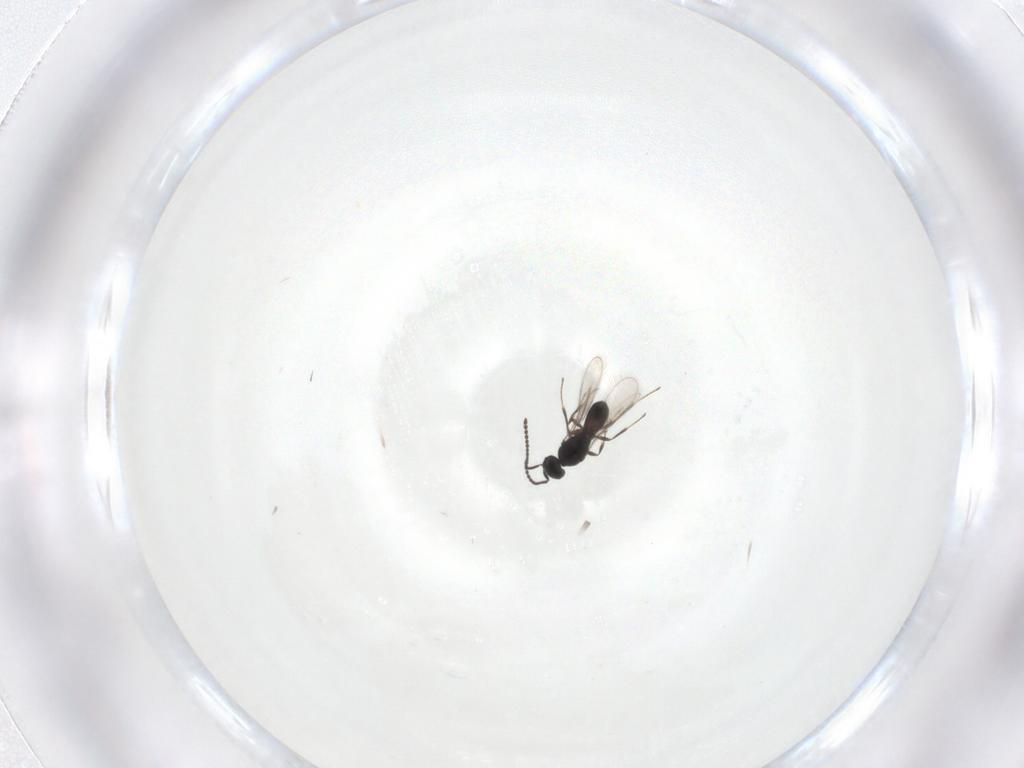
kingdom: Animalia
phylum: Arthropoda
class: Insecta
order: Hymenoptera
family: Scelionidae
